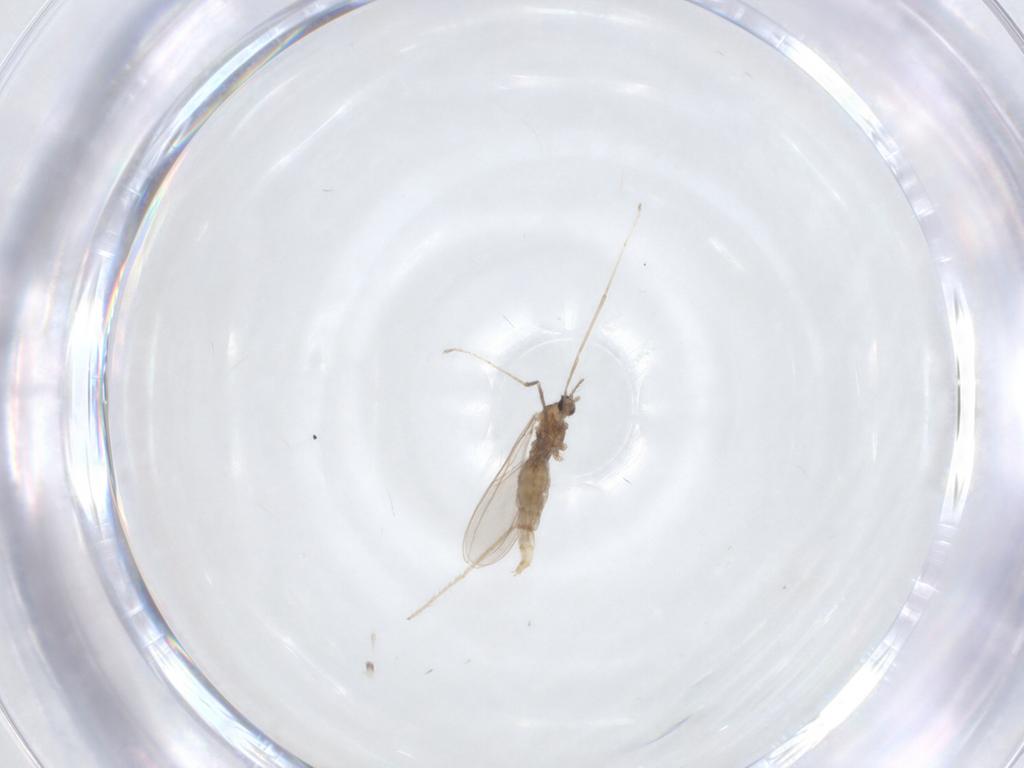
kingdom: Animalia
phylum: Arthropoda
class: Insecta
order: Diptera
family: Cecidomyiidae
